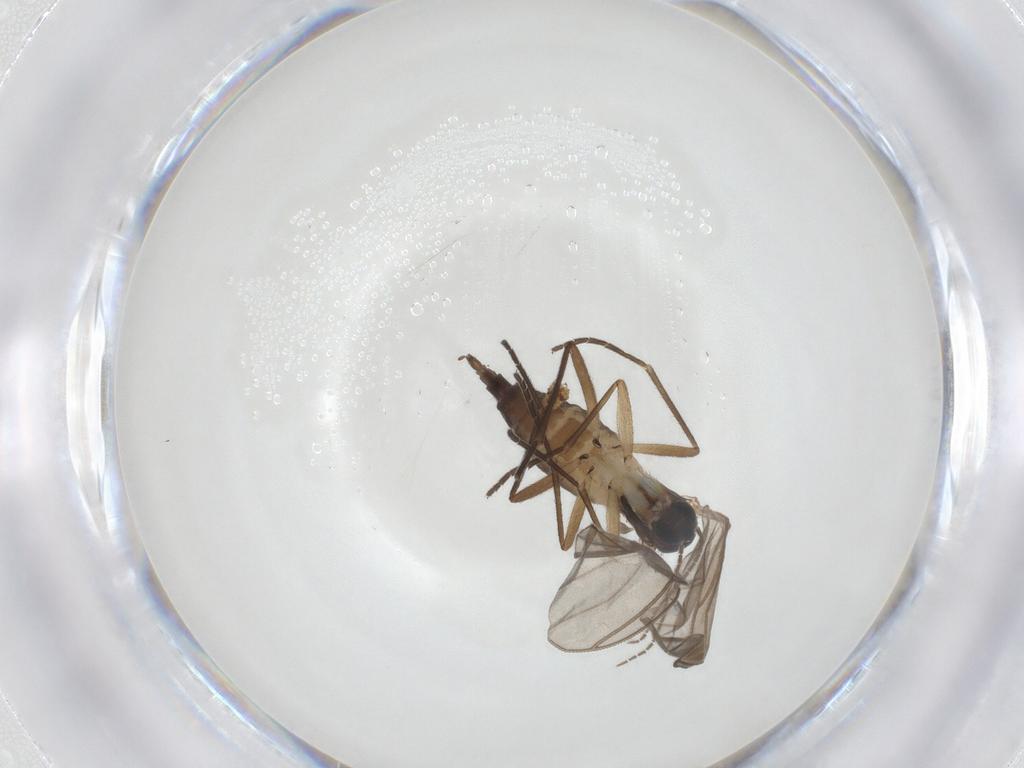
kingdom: Animalia
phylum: Arthropoda
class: Insecta
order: Diptera
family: Sciaridae
